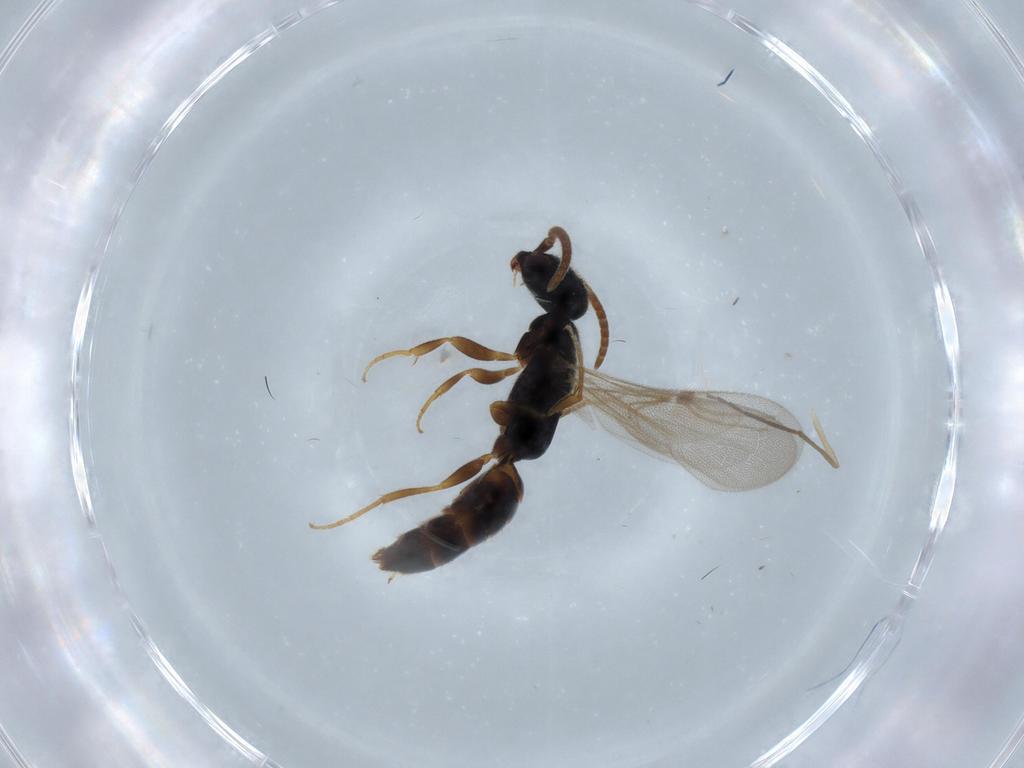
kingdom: Animalia
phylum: Arthropoda
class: Insecta
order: Hymenoptera
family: Bethylidae
